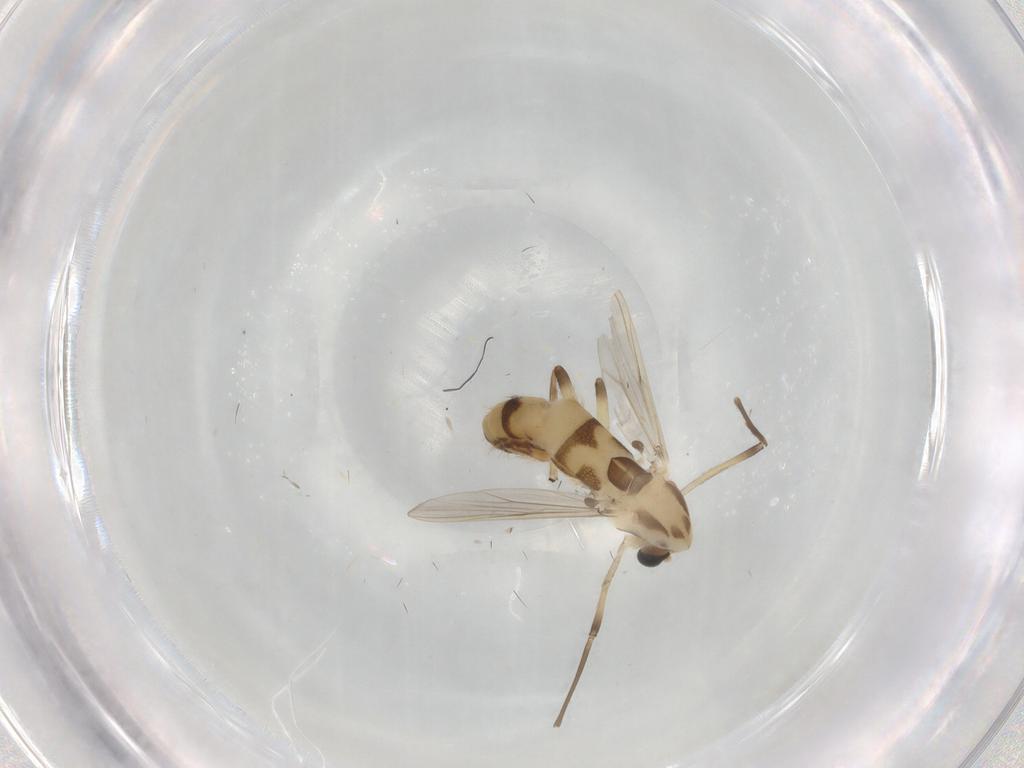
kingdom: Animalia
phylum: Arthropoda
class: Insecta
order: Diptera
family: Chironomidae
